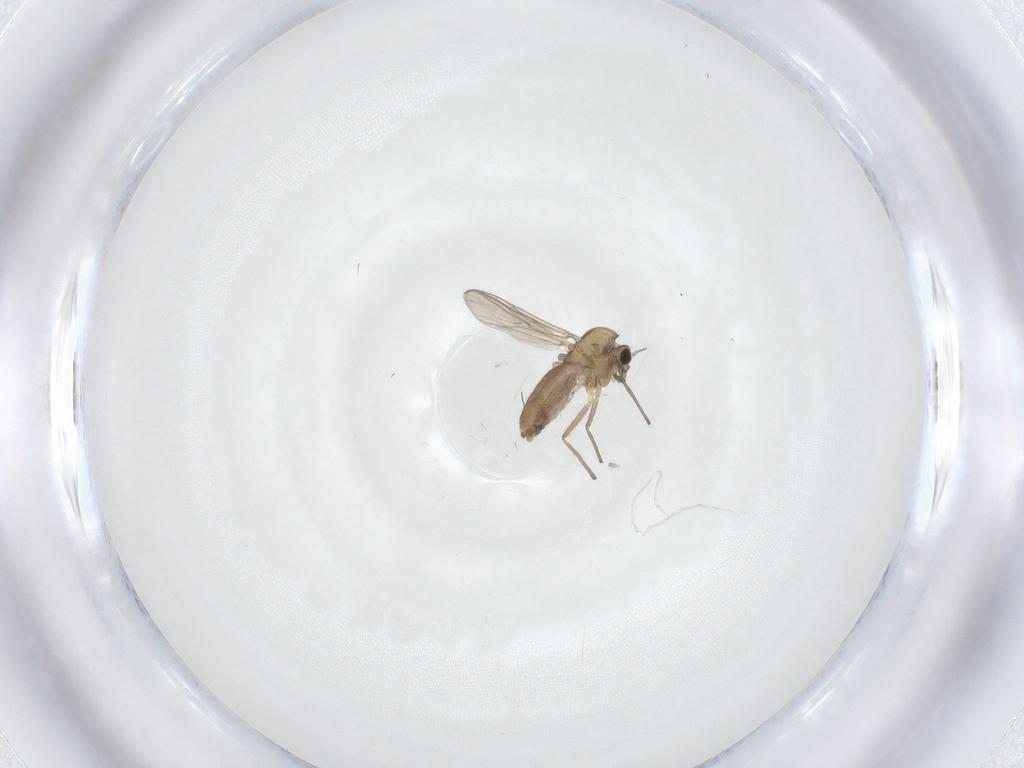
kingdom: Animalia
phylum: Arthropoda
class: Insecta
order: Diptera
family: Chironomidae
